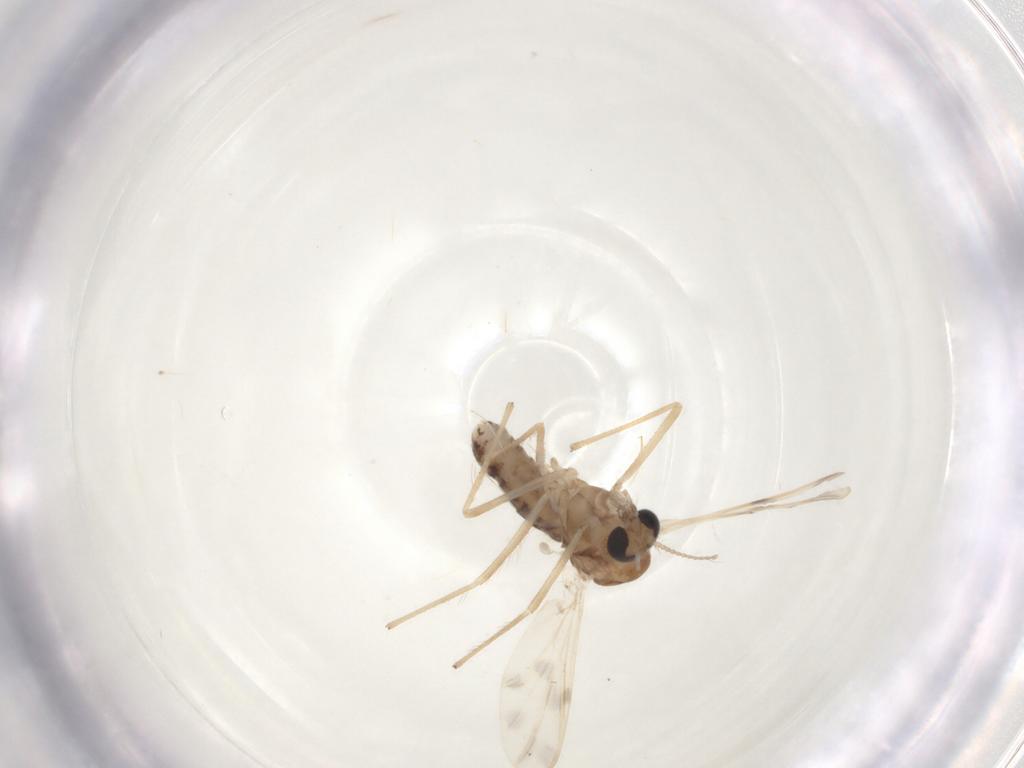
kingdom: Animalia
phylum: Arthropoda
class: Insecta
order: Diptera
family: Chironomidae
